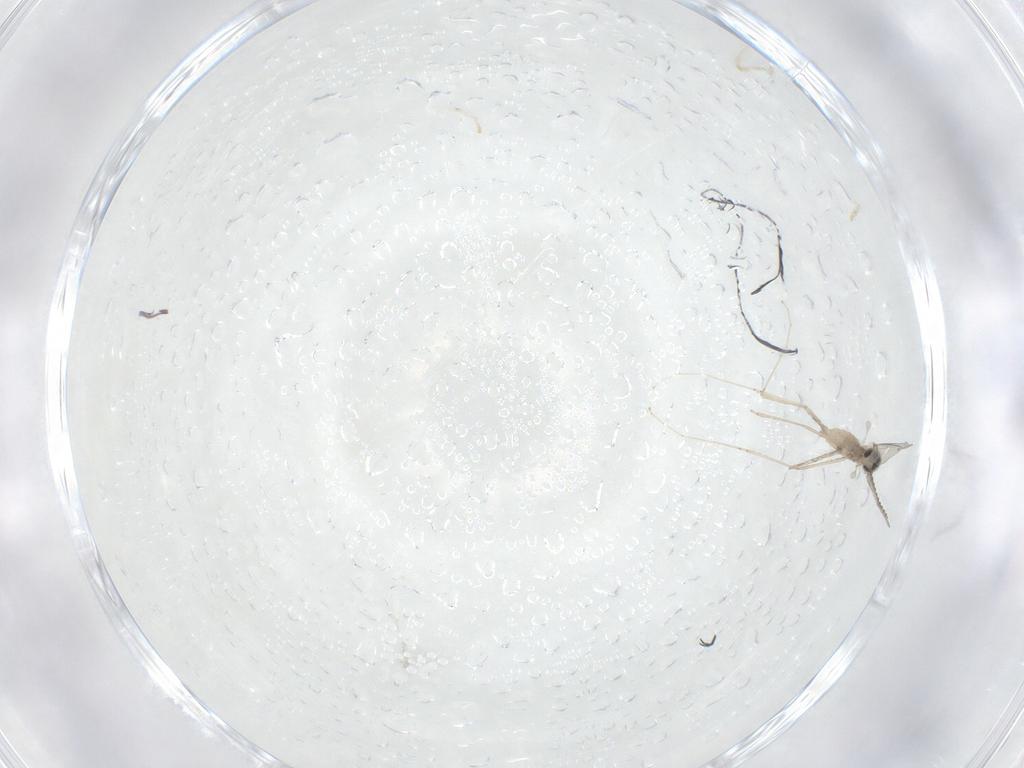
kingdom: Animalia
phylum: Arthropoda
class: Insecta
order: Diptera
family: Cecidomyiidae
